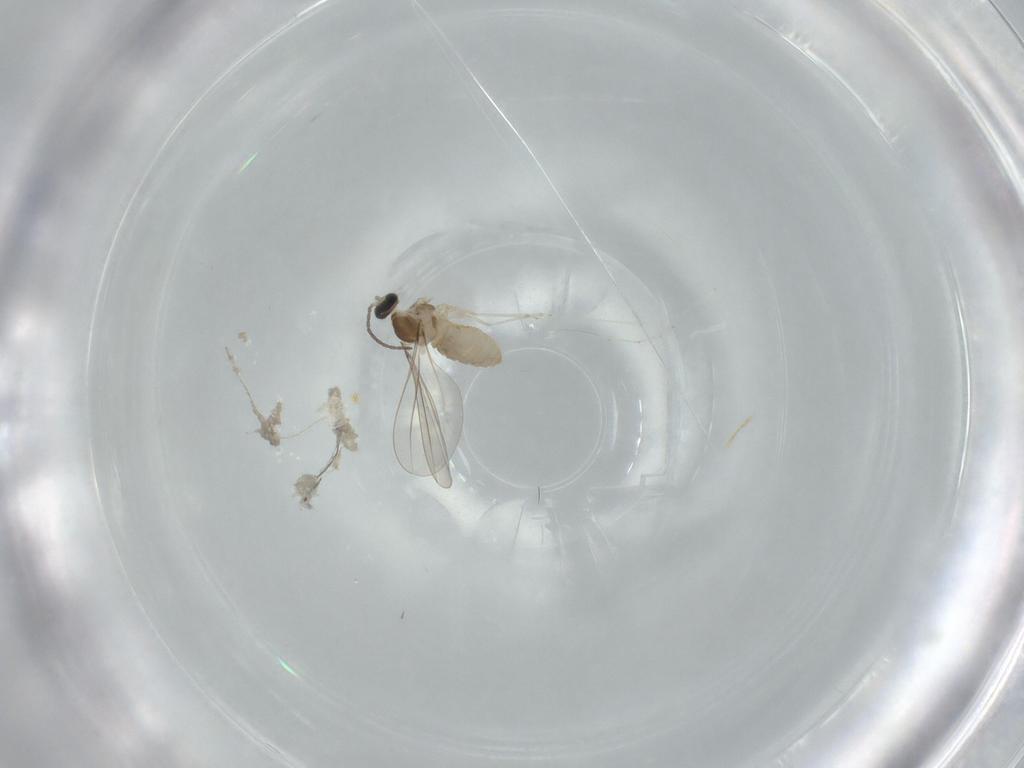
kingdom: Animalia
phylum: Arthropoda
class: Insecta
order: Diptera
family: Cecidomyiidae
